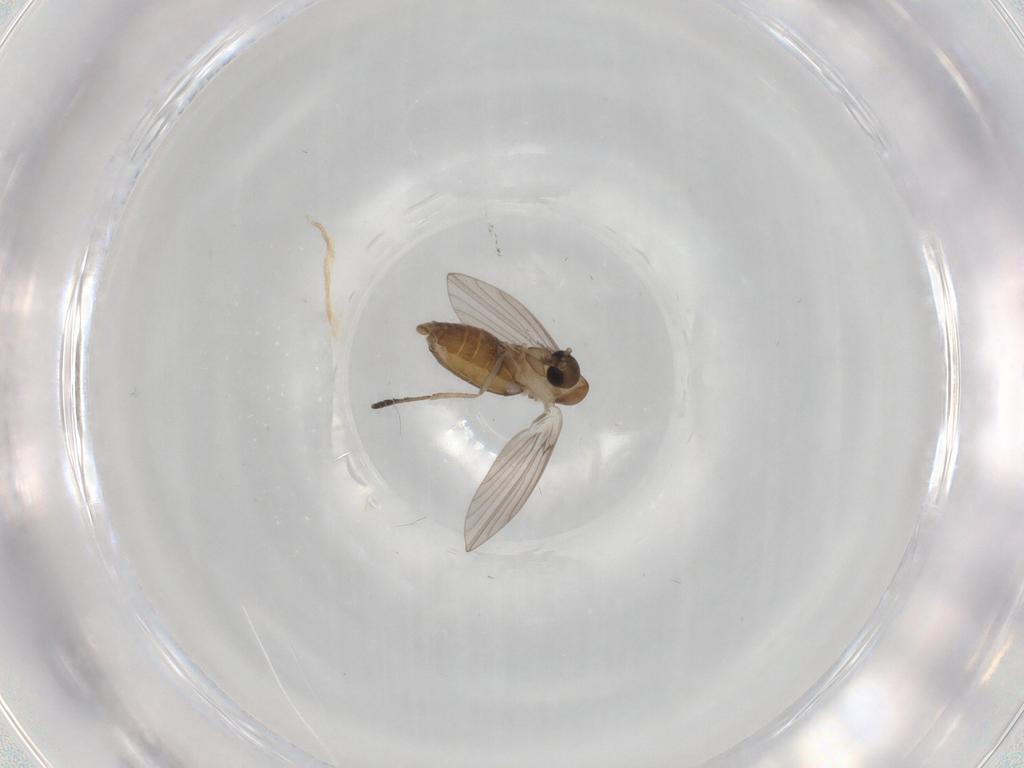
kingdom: Animalia
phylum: Arthropoda
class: Insecta
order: Diptera
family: Psychodidae
